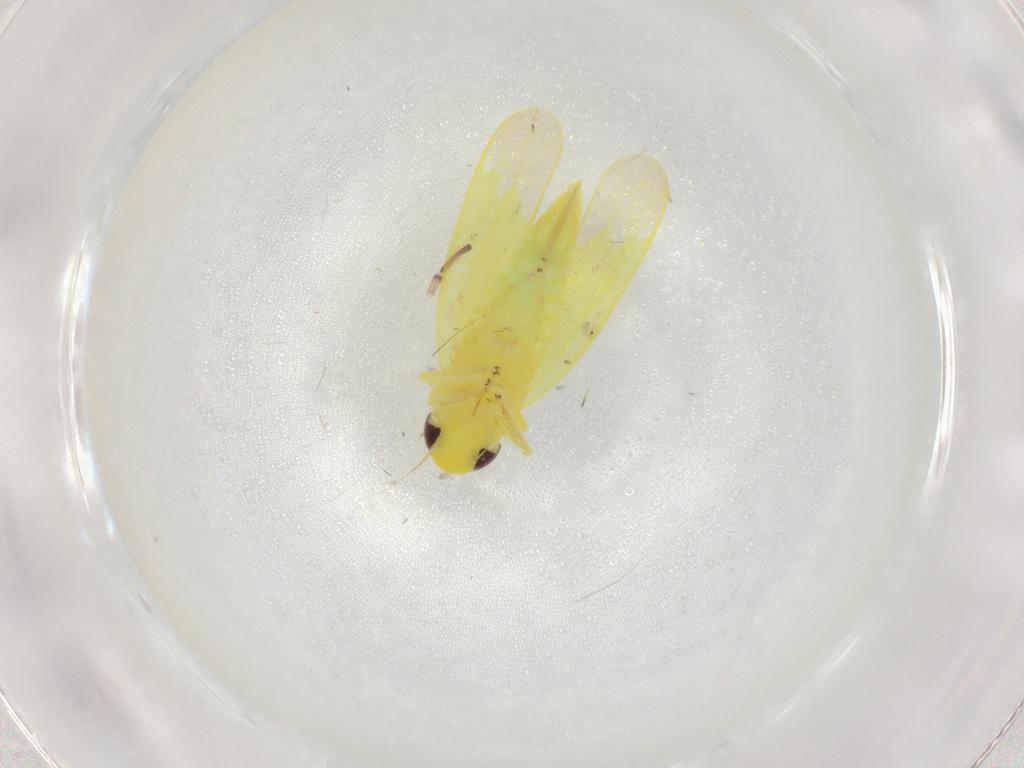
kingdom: Animalia
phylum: Arthropoda
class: Insecta
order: Hemiptera
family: Cicadellidae
